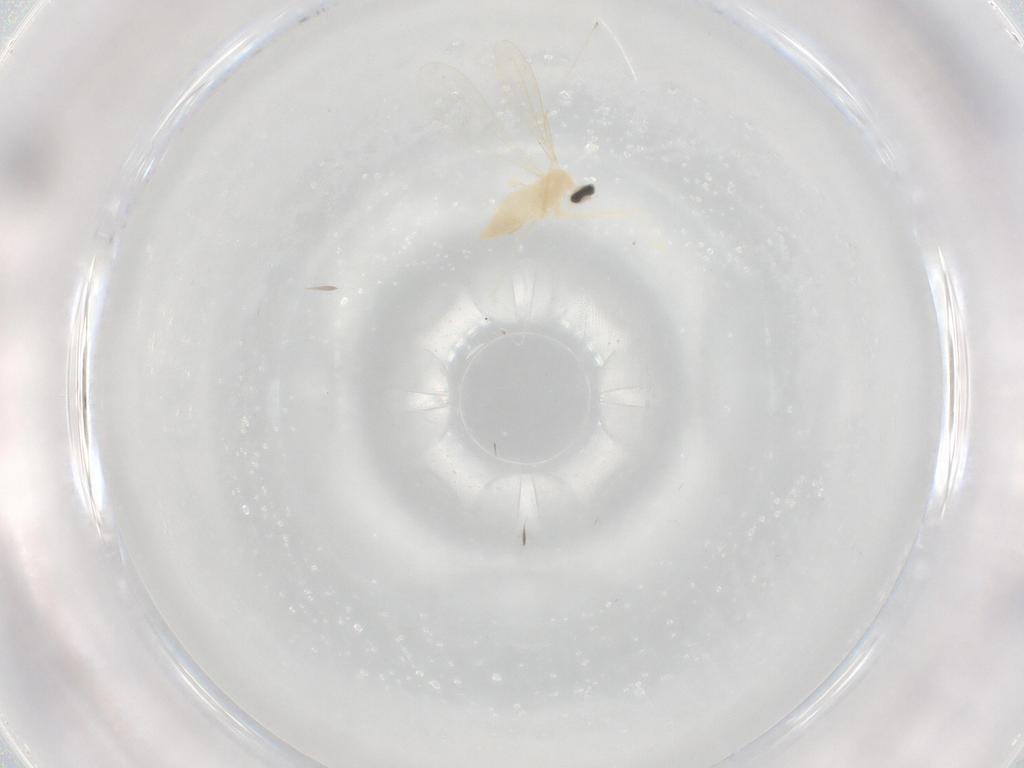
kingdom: Animalia
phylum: Arthropoda
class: Insecta
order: Diptera
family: Cecidomyiidae
